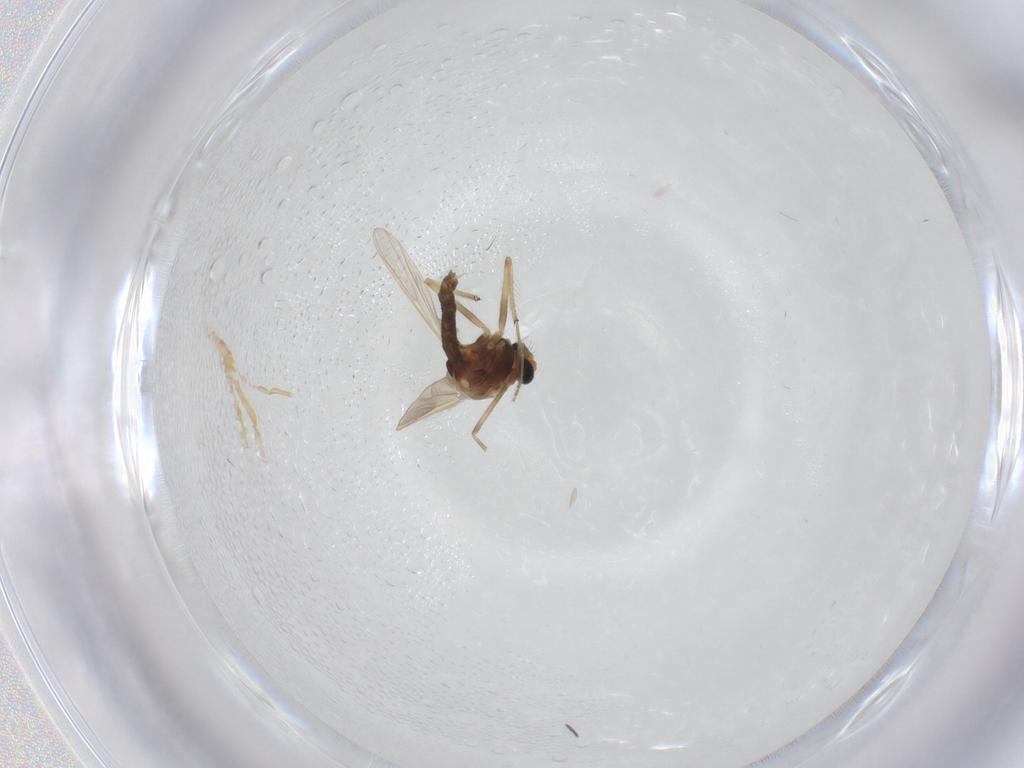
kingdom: Animalia
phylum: Arthropoda
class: Insecta
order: Diptera
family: Chironomidae
